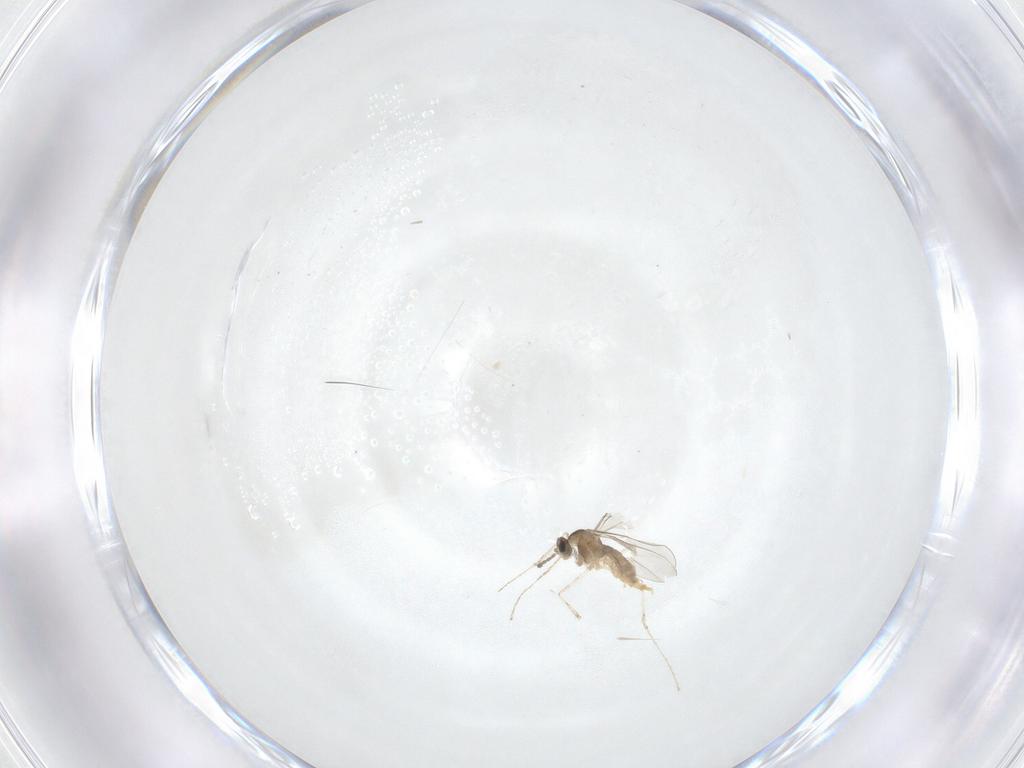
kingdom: Animalia
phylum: Arthropoda
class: Insecta
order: Diptera
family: Cecidomyiidae
